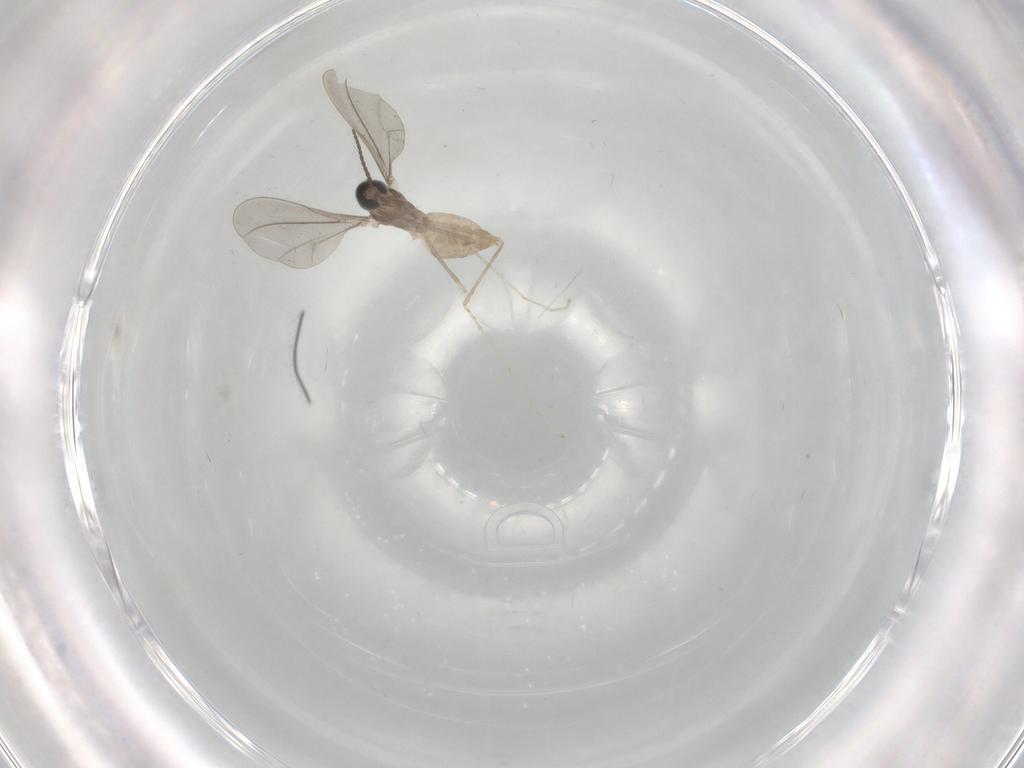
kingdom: Animalia
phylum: Arthropoda
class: Insecta
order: Diptera
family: Cecidomyiidae
